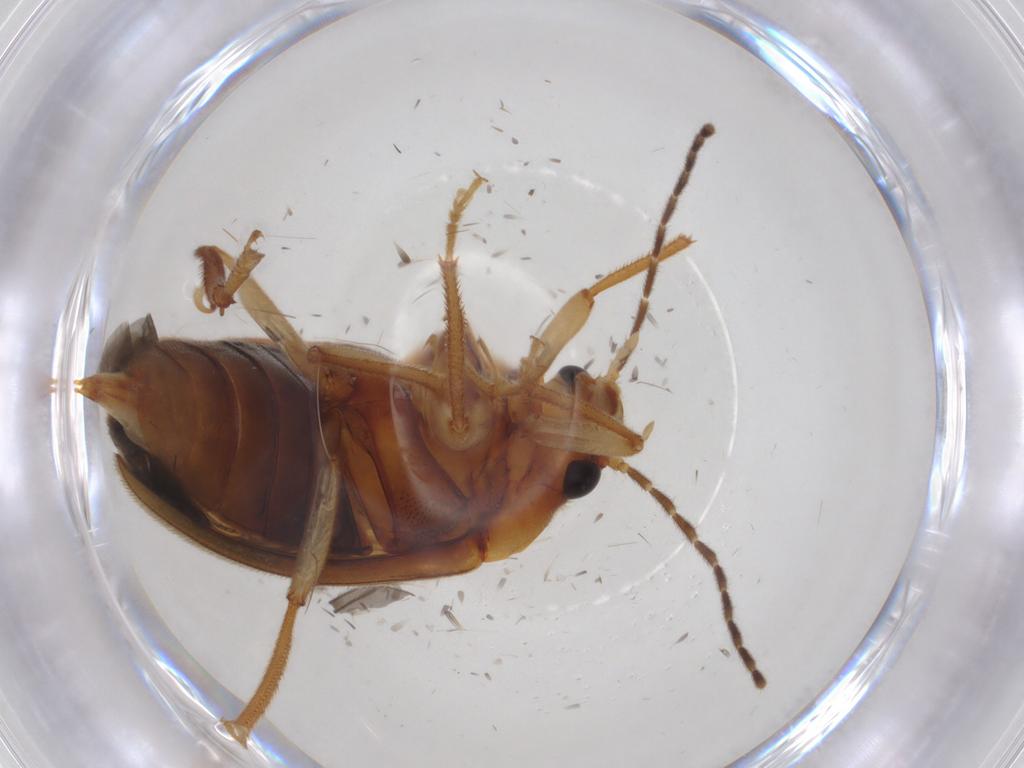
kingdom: Animalia
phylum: Arthropoda
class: Insecta
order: Coleoptera
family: Ptilodactylidae
